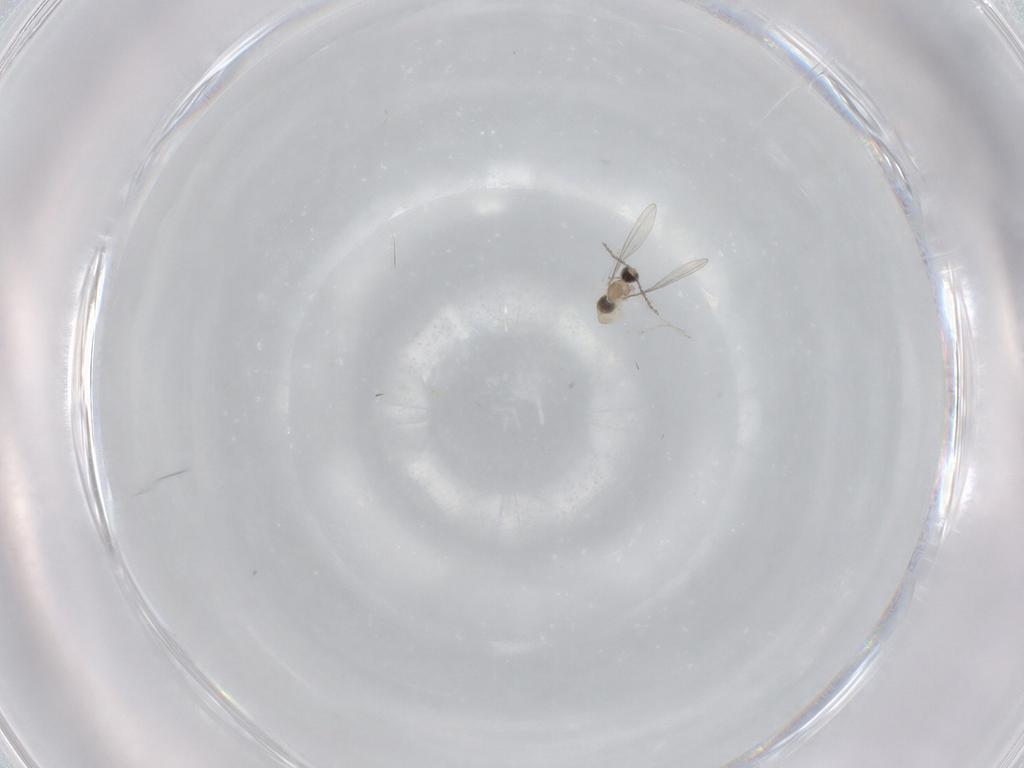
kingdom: Animalia
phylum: Arthropoda
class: Insecta
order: Diptera
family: Cecidomyiidae
